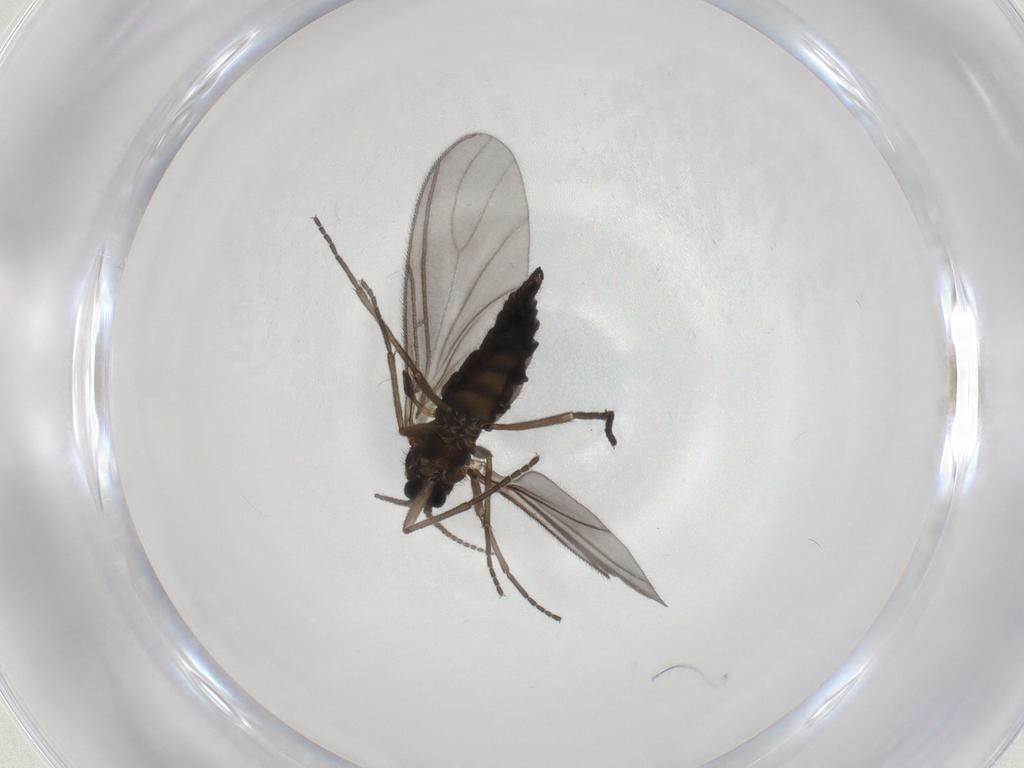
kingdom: Animalia
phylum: Arthropoda
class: Insecta
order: Diptera
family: Sciaridae
